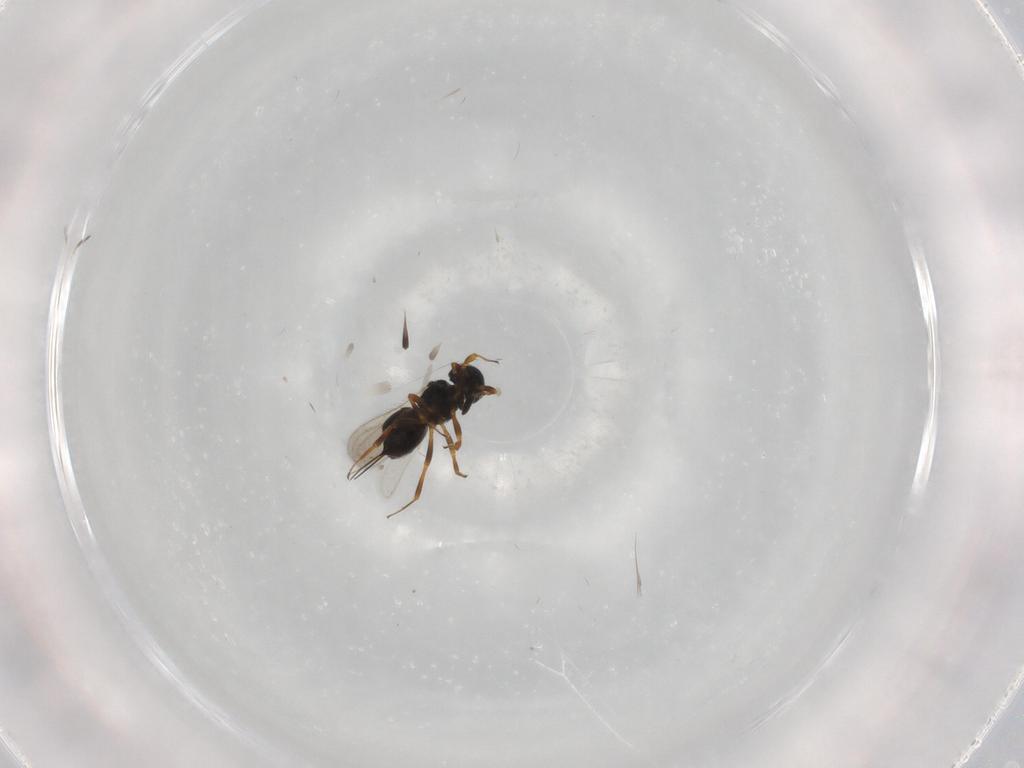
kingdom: Animalia
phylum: Arthropoda
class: Insecta
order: Hymenoptera
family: Scelionidae
